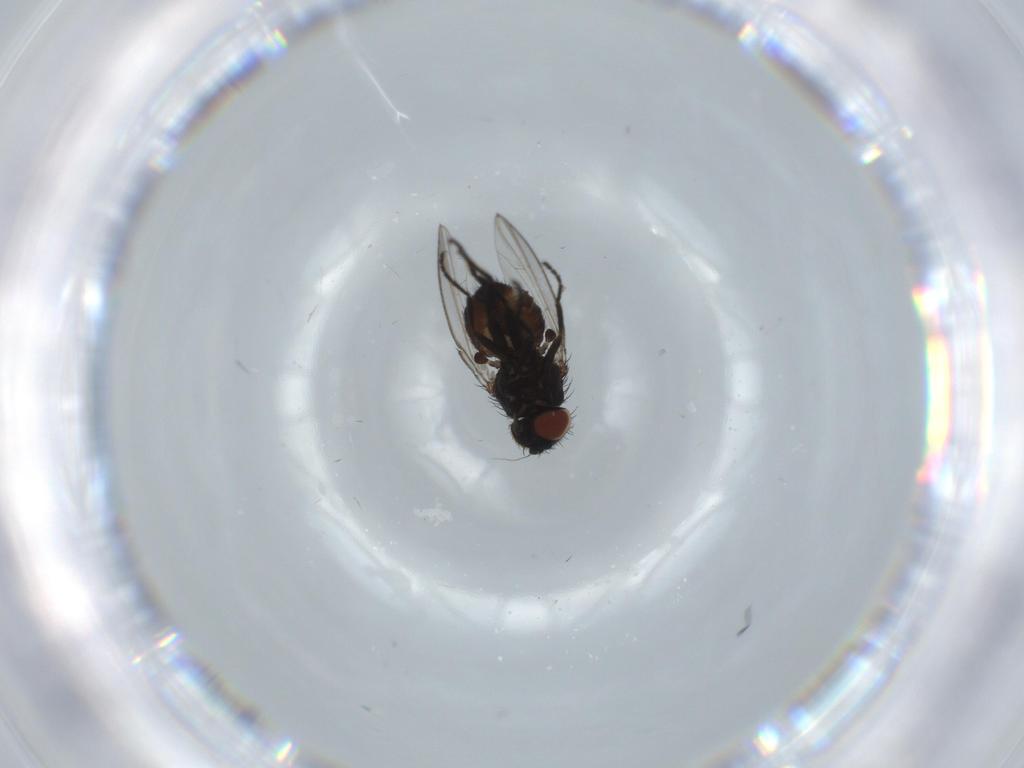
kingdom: Animalia
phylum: Arthropoda
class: Insecta
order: Diptera
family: Milichiidae
